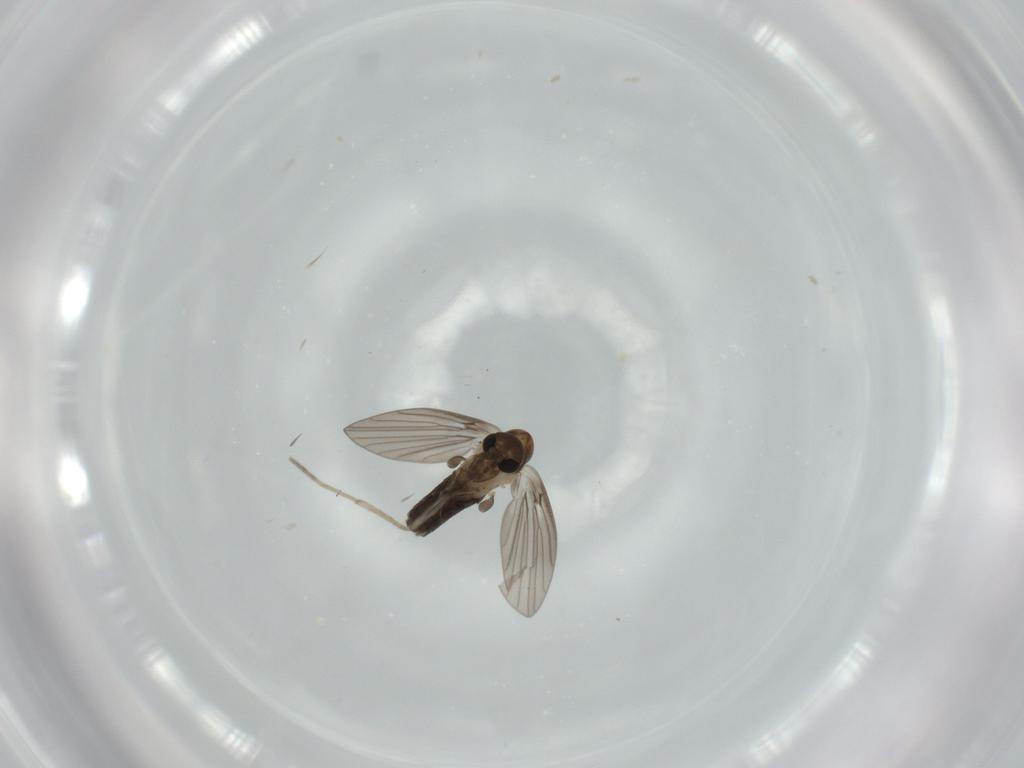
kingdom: Animalia
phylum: Arthropoda
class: Insecta
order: Diptera
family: Psychodidae
